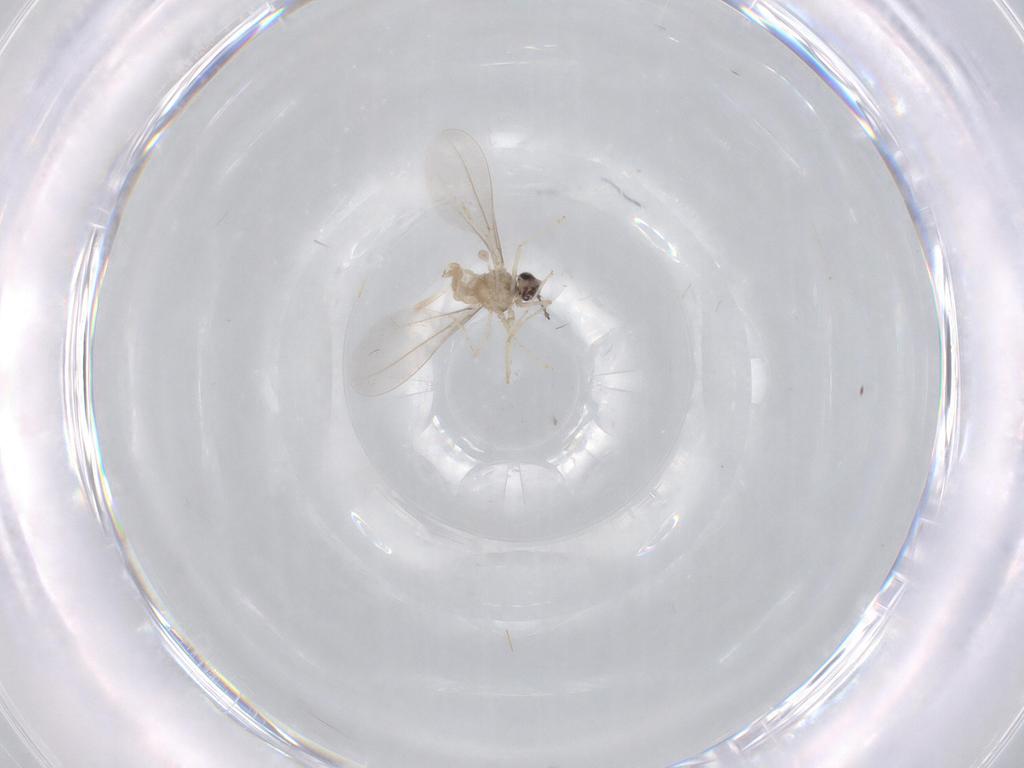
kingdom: Animalia
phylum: Arthropoda
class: Insecta
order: Diptera
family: Cecidomyiidae
